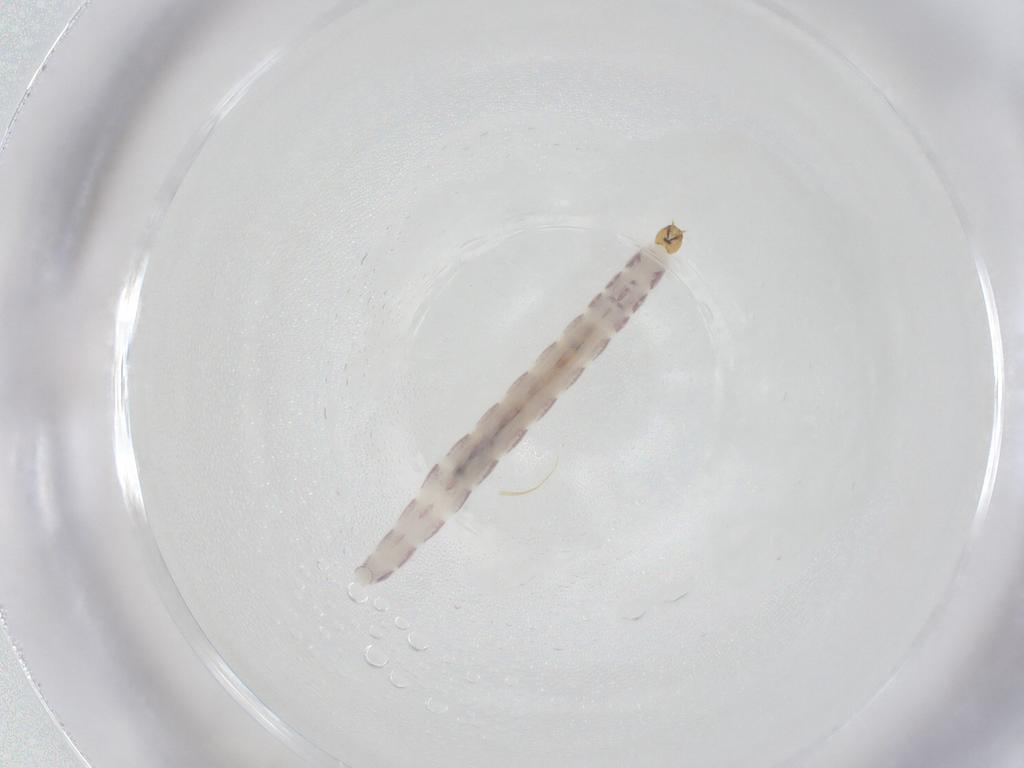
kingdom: Animalia
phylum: Arthropoda
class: Insecta
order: Diptera
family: Chironomidae
